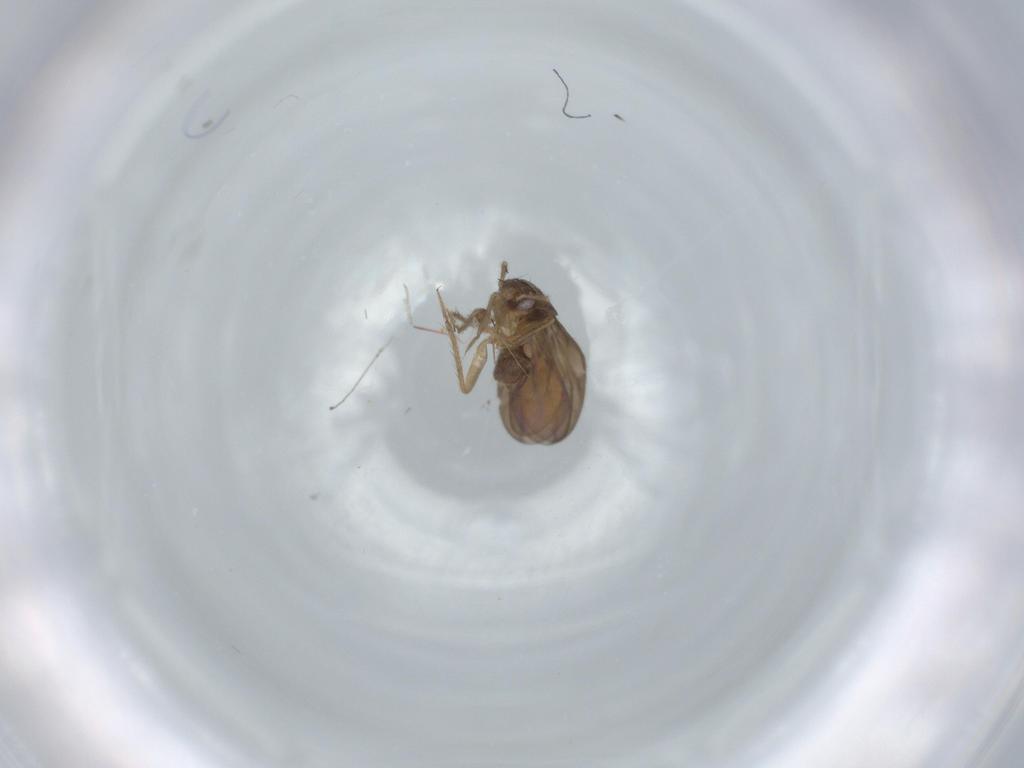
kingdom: Animalia
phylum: Arthropoda
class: Insecta
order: Hemiptera
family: Ceratocombidae
